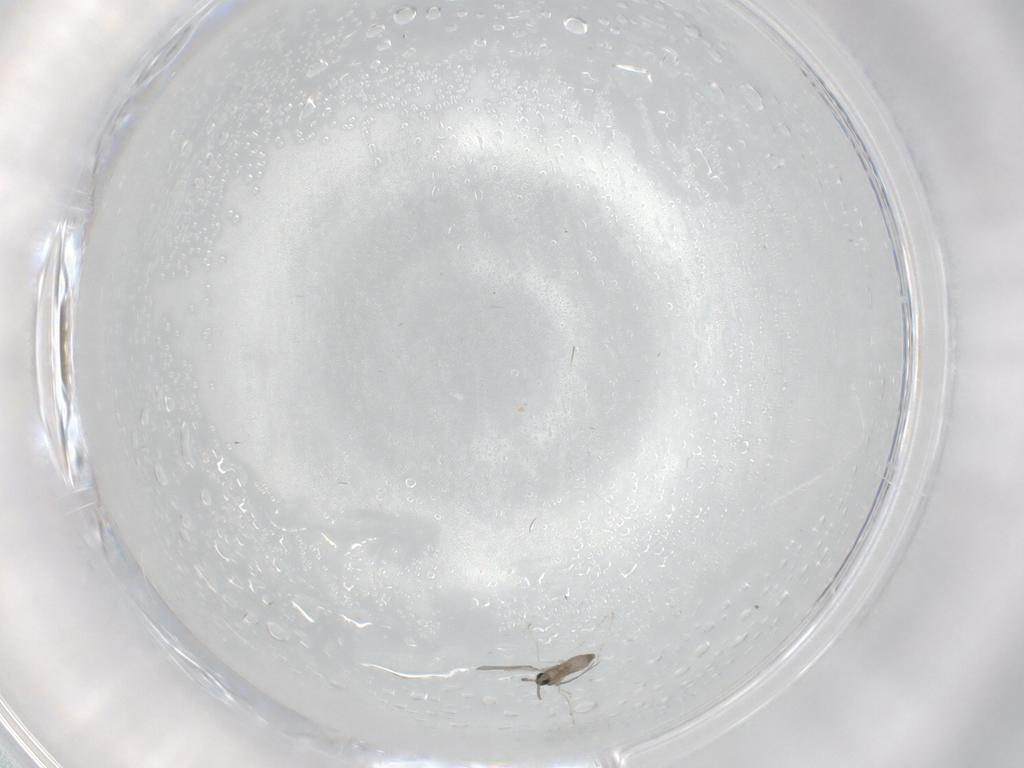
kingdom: Animalia
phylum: Arthropoda
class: Insecta
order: Diptera
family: Cecidomyiidae
